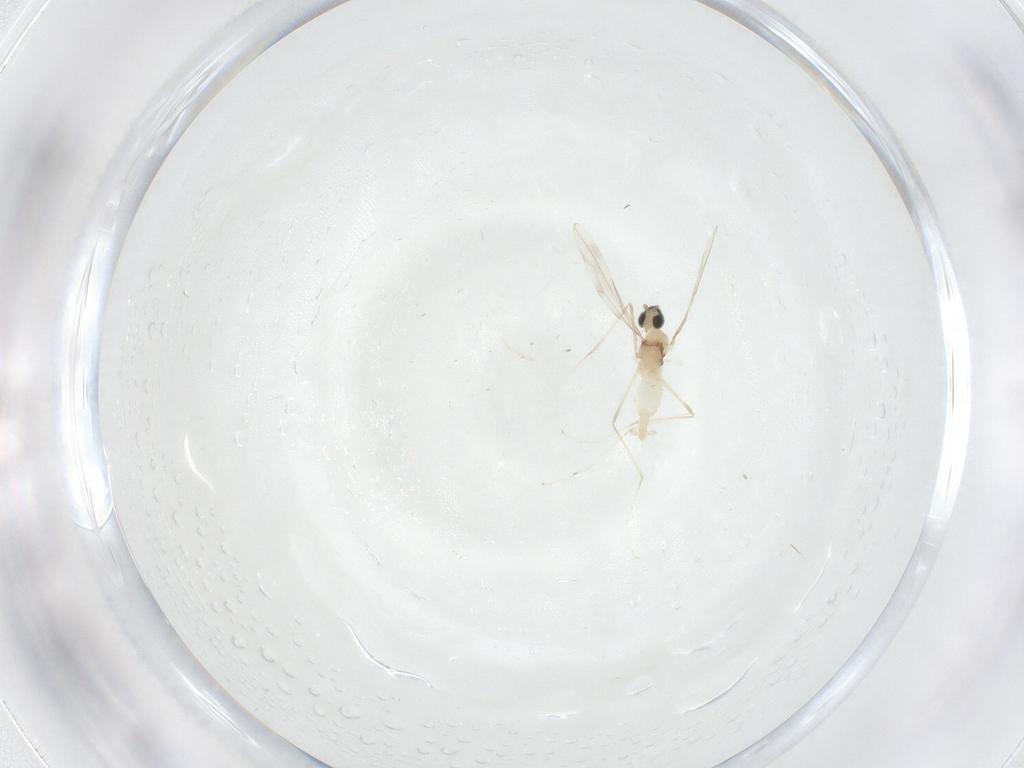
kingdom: Animalia
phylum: Arthropoda
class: Insecta
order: Diptera
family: Cecidomyiidae
